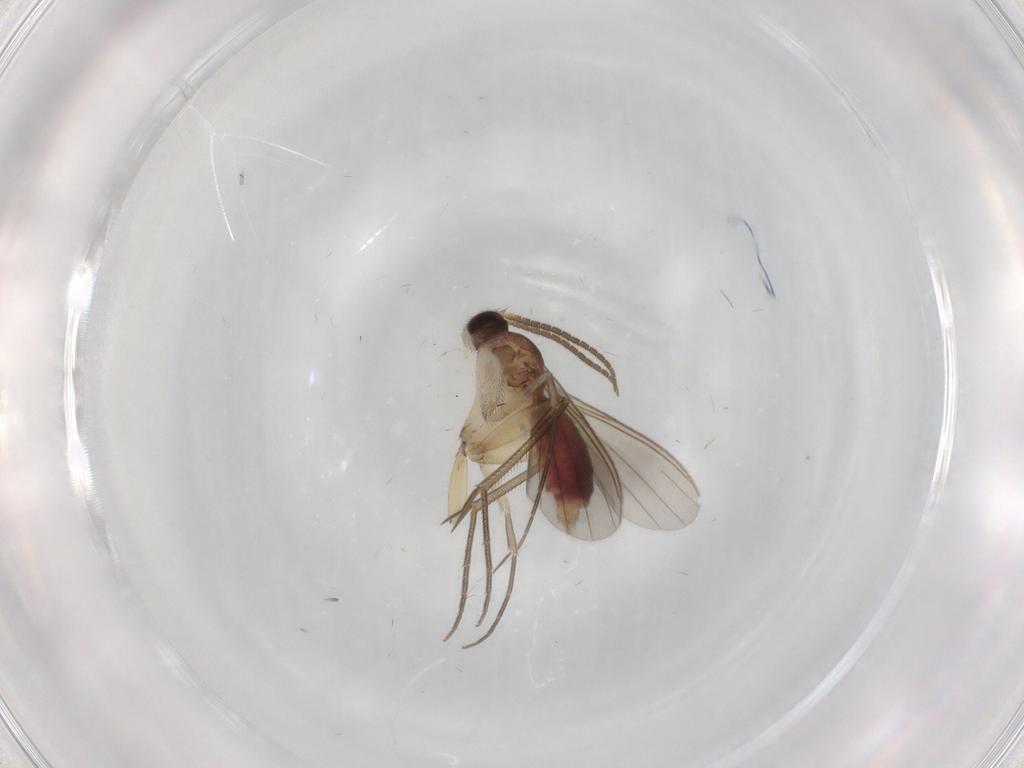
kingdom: Animalia
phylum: Arthropoda
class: Insecta
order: Diptera
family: Mycetophilidae
